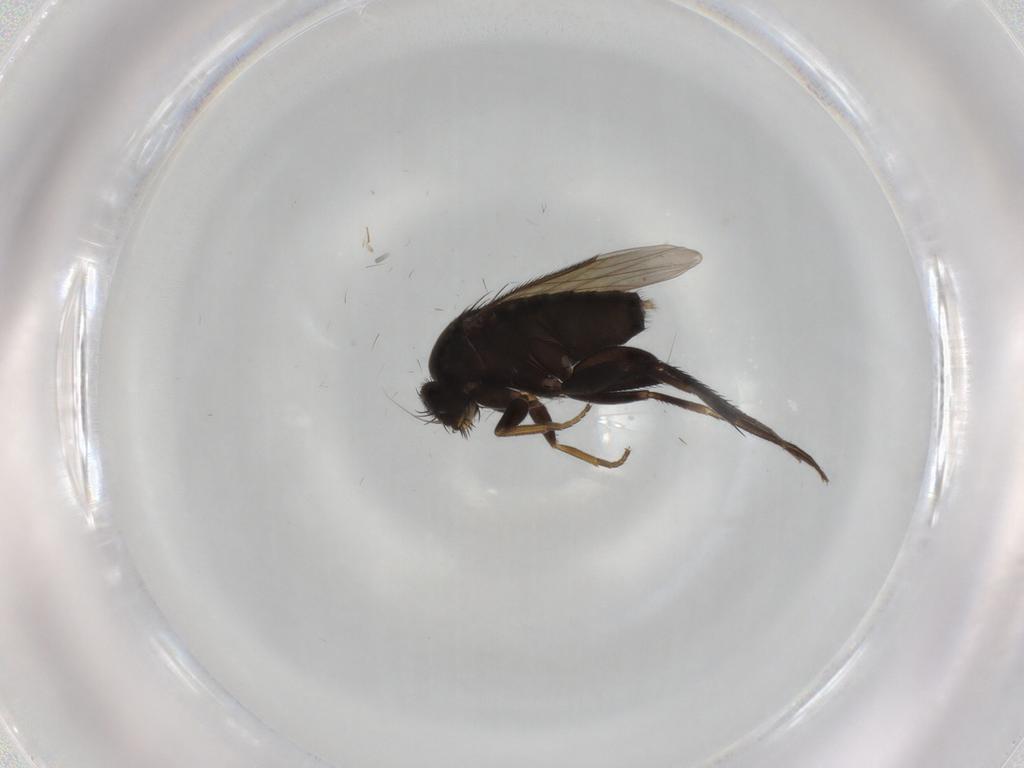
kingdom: Animalia
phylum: Arthropoda
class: Insecta
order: Diptera
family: Phoridae
